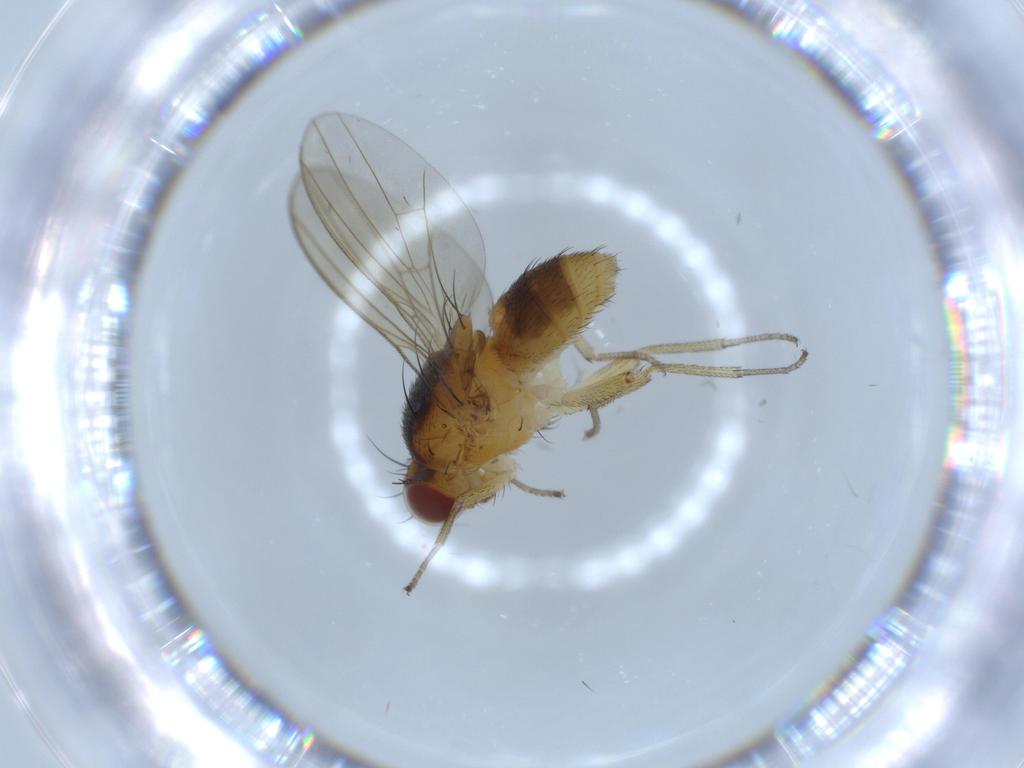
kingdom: Animalia
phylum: Arthropoda
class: Insecta
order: Diptera
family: Lauxaniidae
